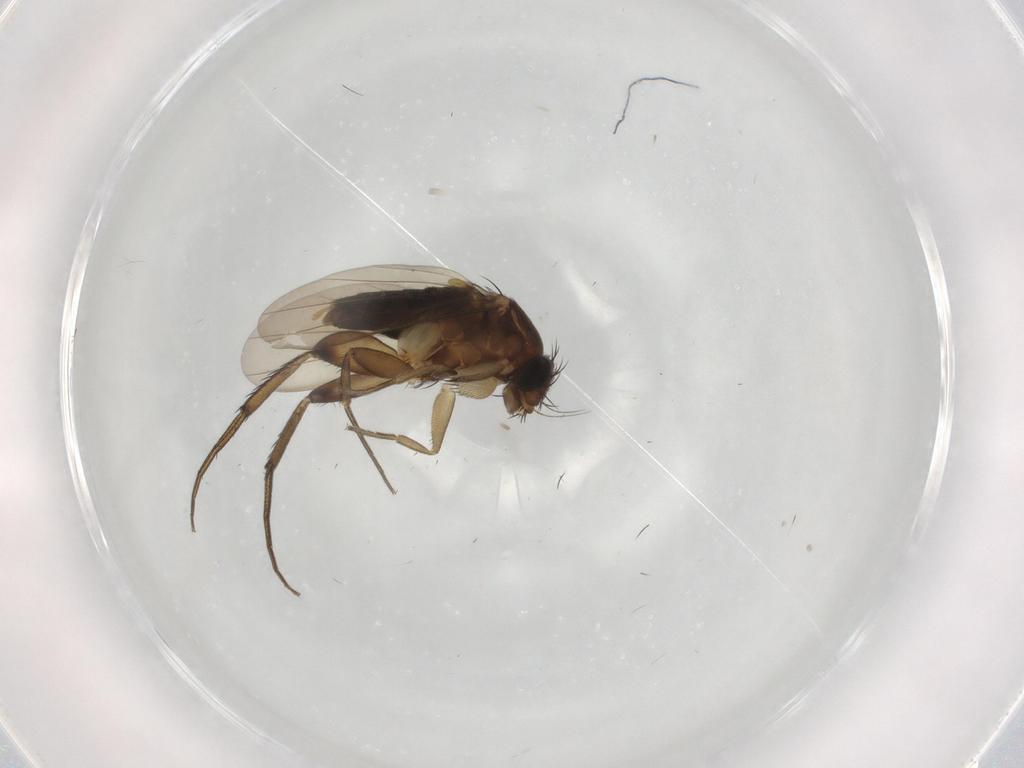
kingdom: Animalia
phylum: Arthropoda
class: Insecta
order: Diptera
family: Phoridae
